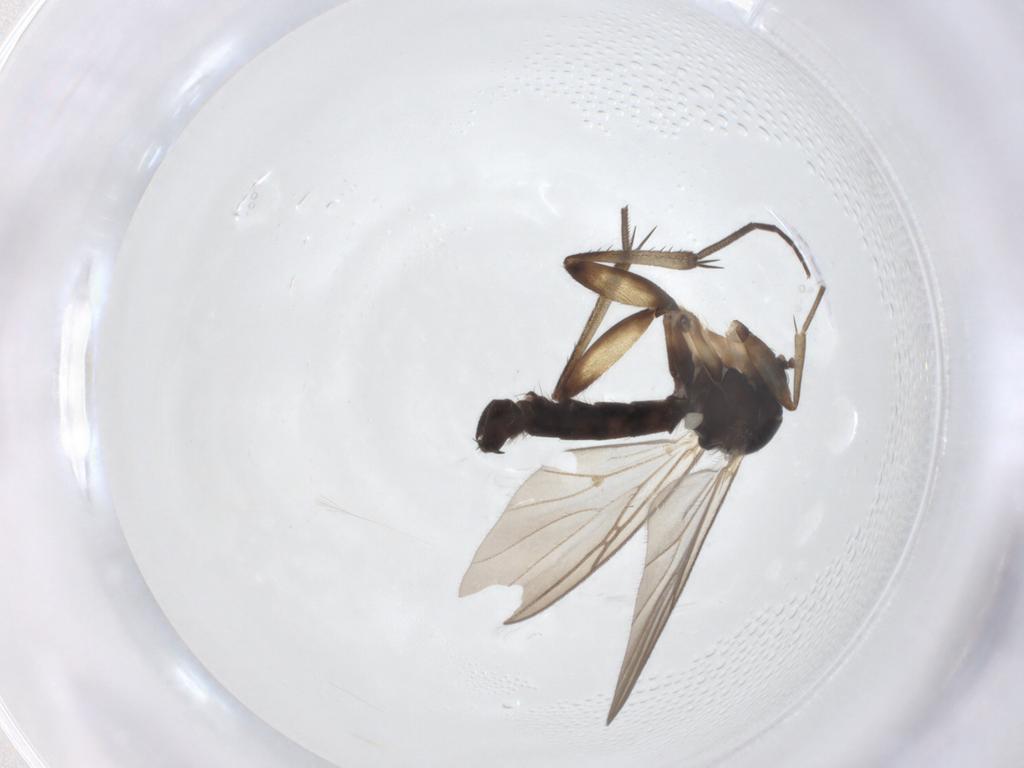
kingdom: Animalia
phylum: Arthropoda
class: Insecta
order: Diptera
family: Mycetophilidae
